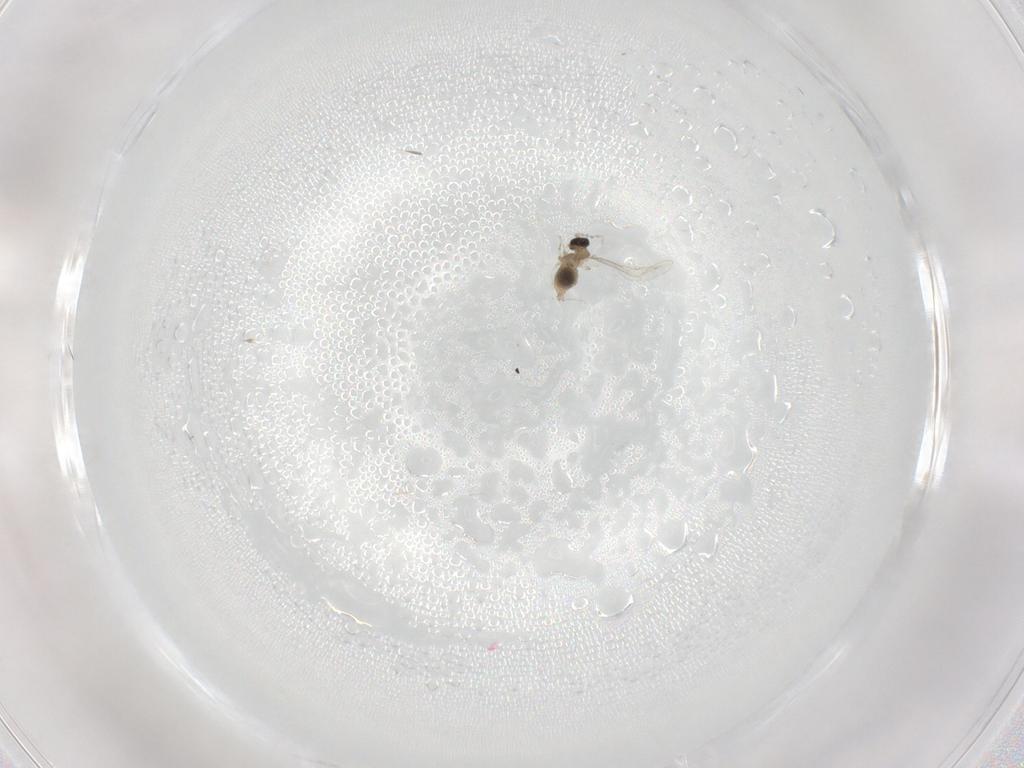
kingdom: Animalia
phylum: Arthropoda
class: Insecta
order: Diptera
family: Cecidomyiidae
